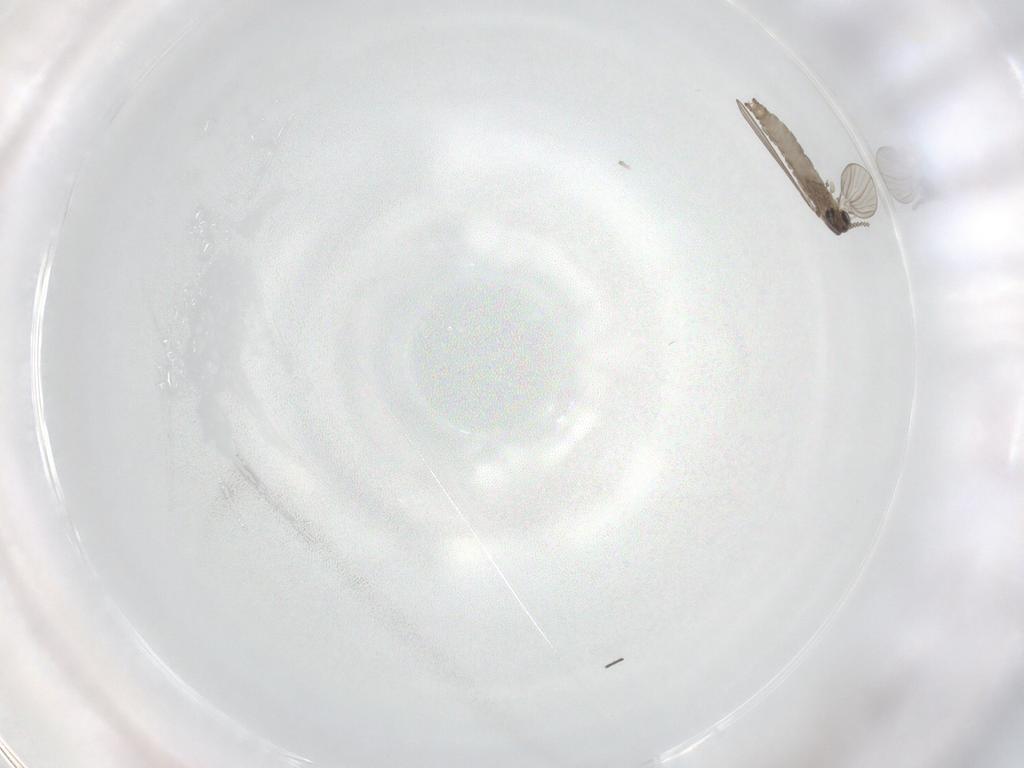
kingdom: Animalia
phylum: Arthropoda
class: Insecta
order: Diptera
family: Psychodidae
